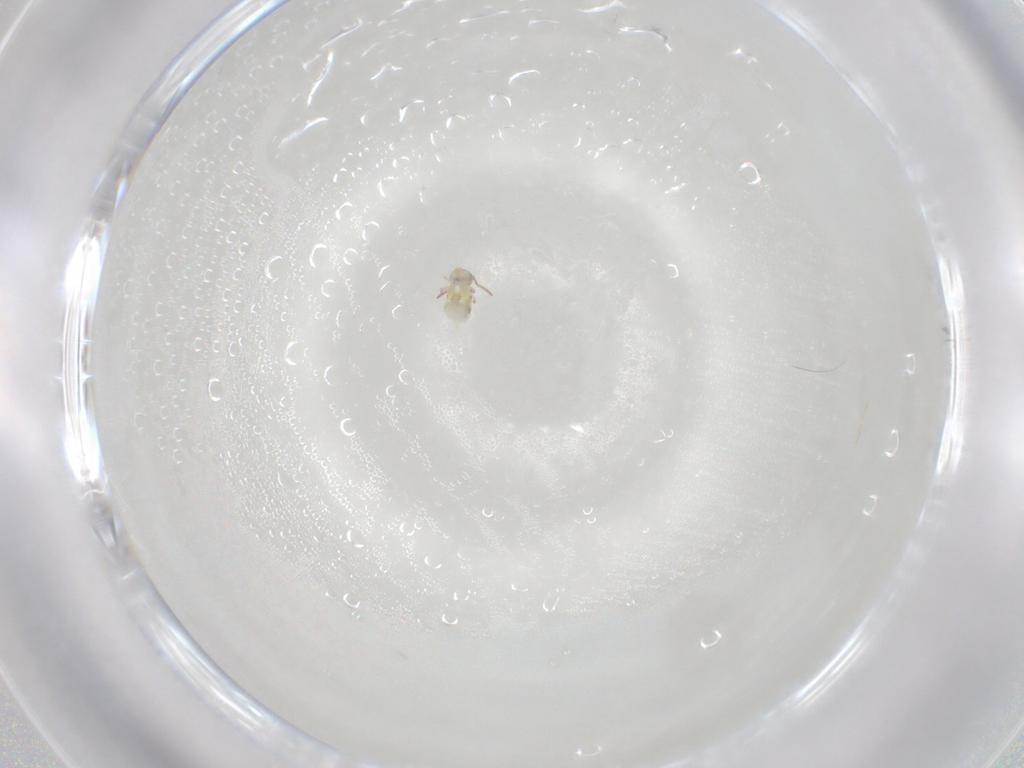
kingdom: Animalia
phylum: Arthropoda
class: Collembola
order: Symphypleona
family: Bourletiellidae
